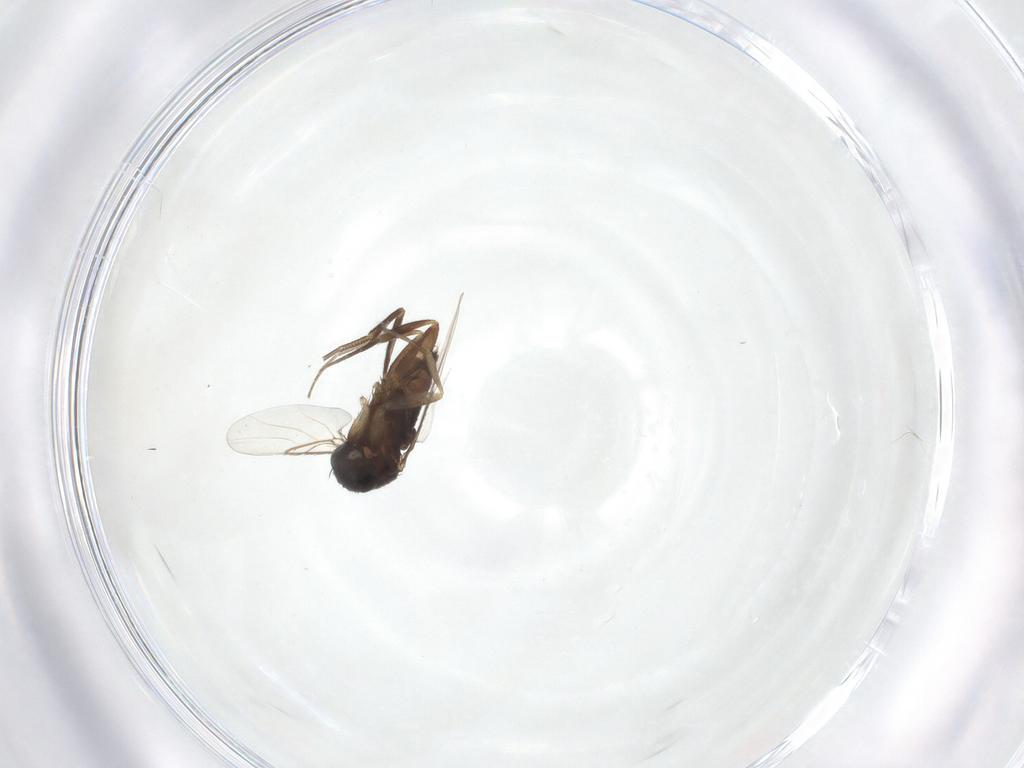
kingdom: Animalia
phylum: Arthropoda
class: Insecta
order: Diptera
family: Phoridae
